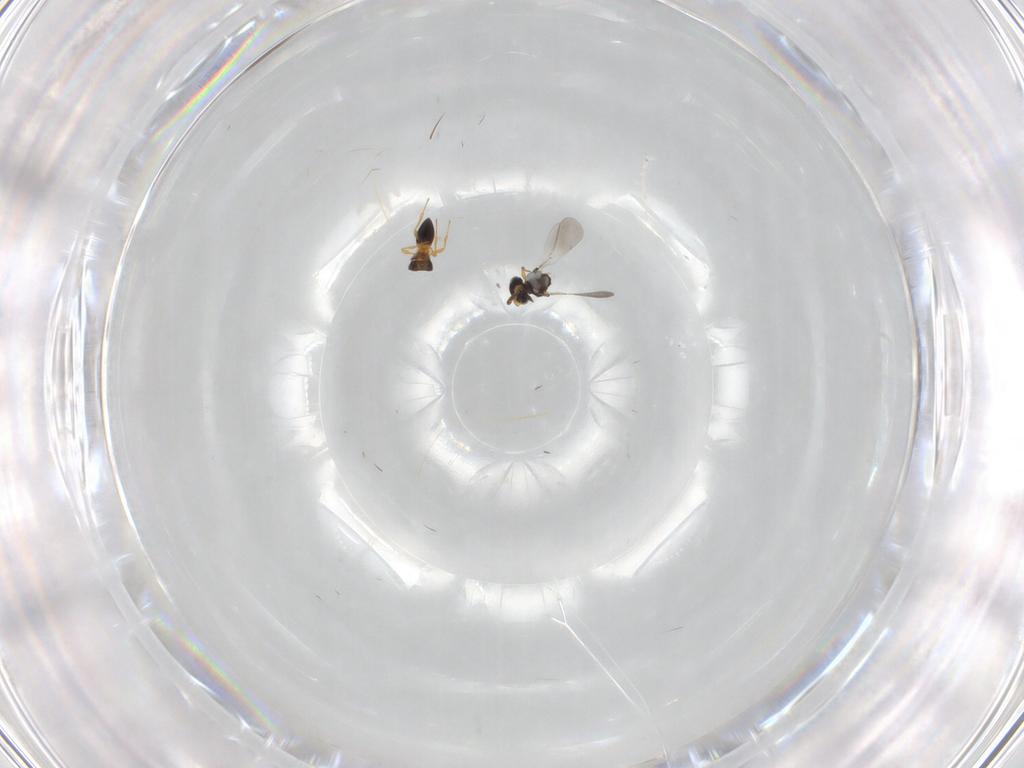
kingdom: Animalia
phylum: Arthropoda
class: Insecta
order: Hymenoptera
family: Platygastridae
